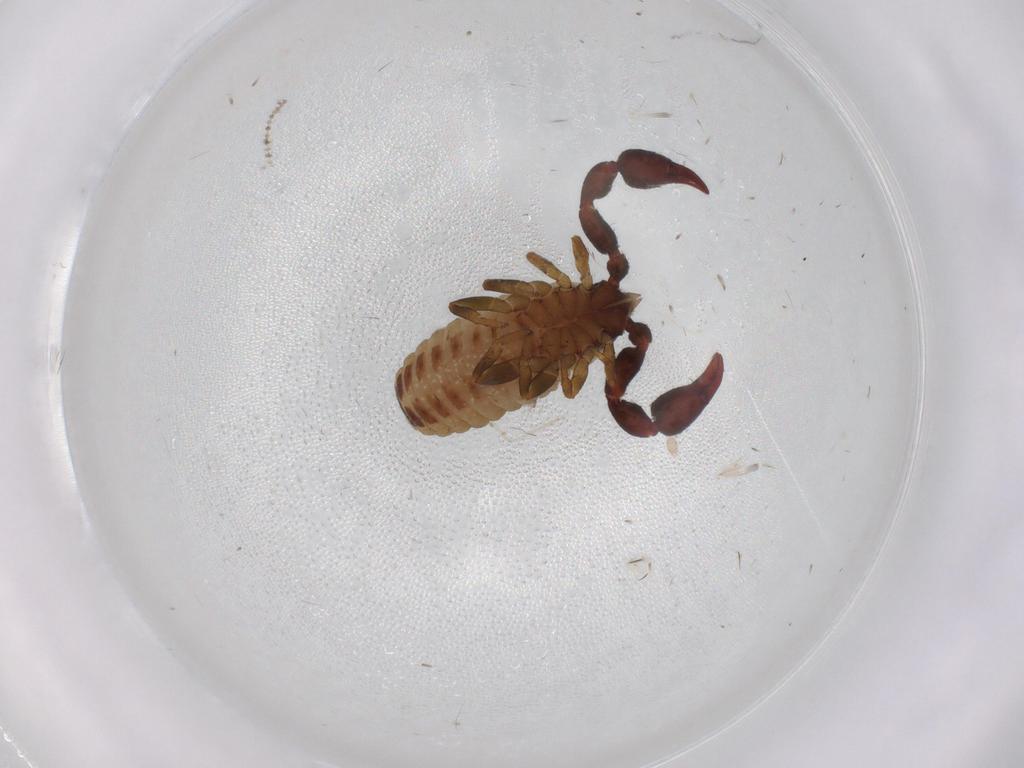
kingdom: Animalia
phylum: Arthropoda
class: Arachnida
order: Pseudoscorpiones
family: Chernetidae
